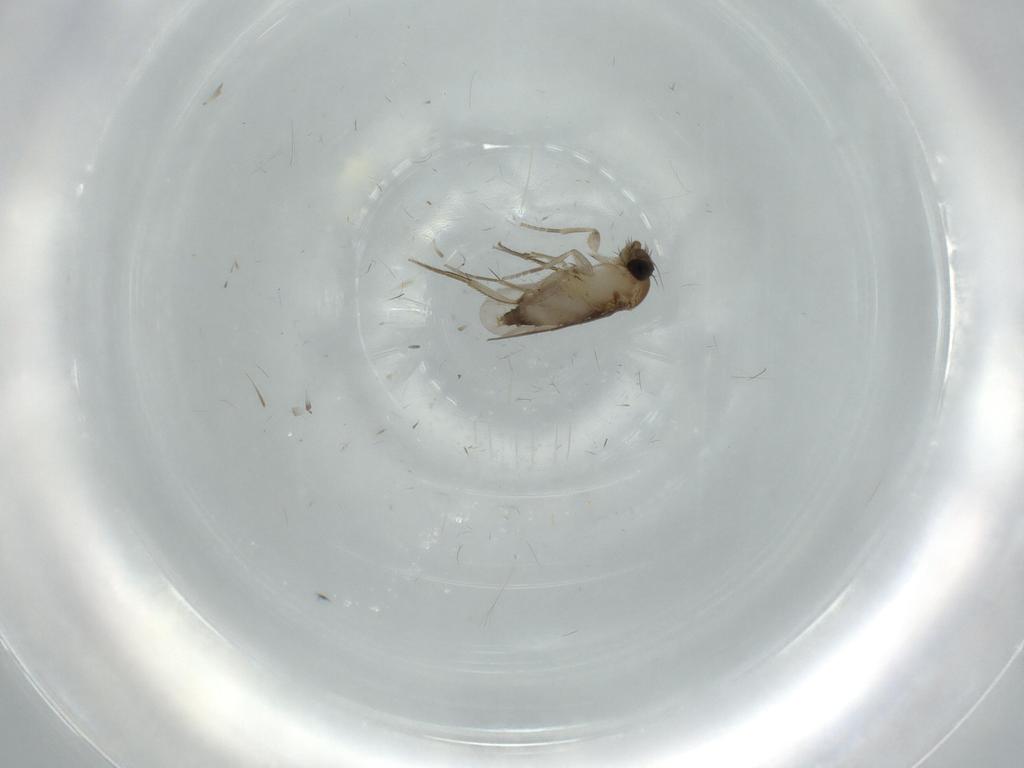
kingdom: Animalia
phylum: Arthropoda
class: Insecta
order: Diptera
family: Phoridae
